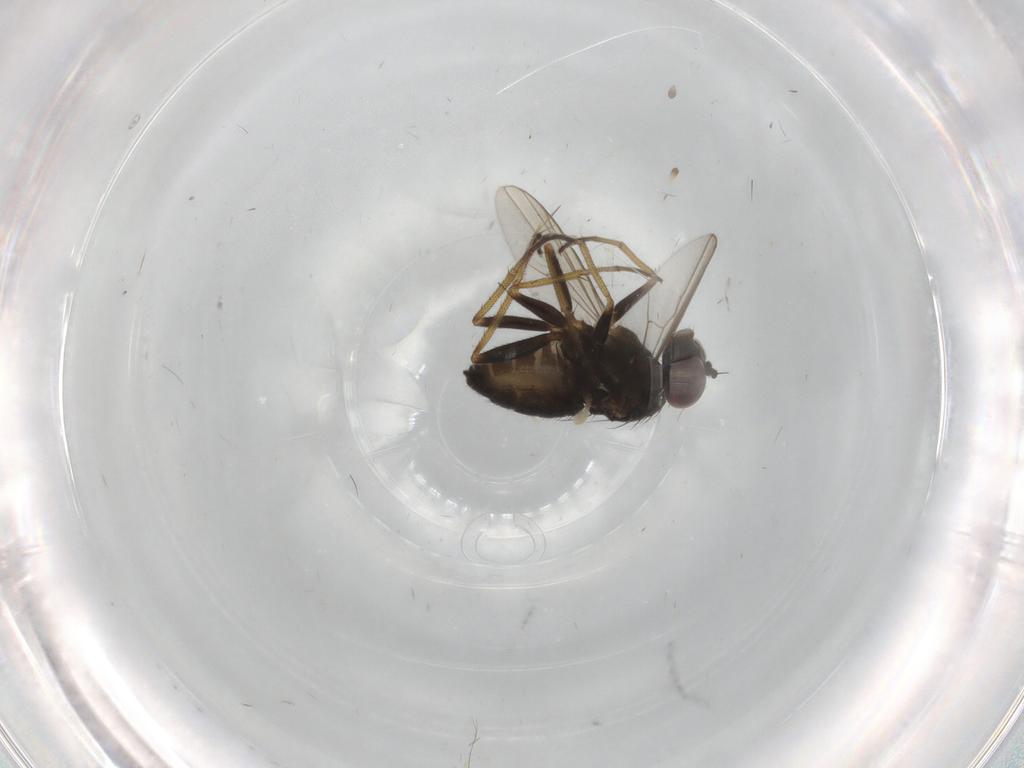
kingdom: Animalia
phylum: Arthropoda
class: Insecta
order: Diptera
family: Dolichopodidae
